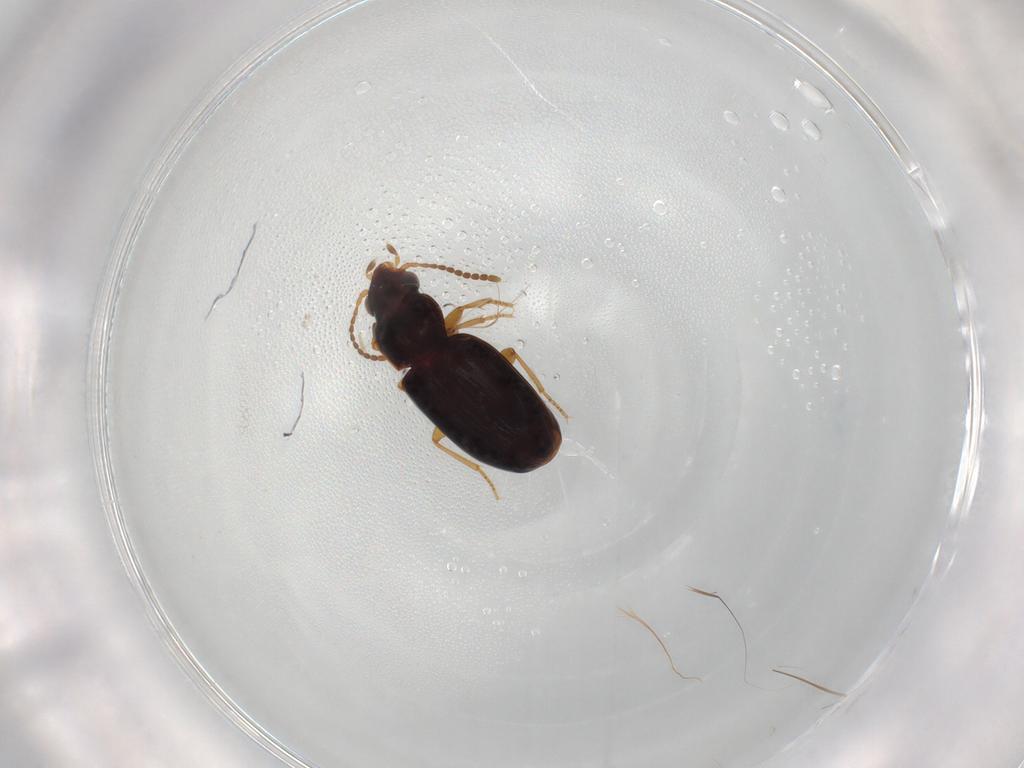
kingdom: Animalia
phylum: Arthropoda
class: Insecta
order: Coleoptera
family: Carabidae
